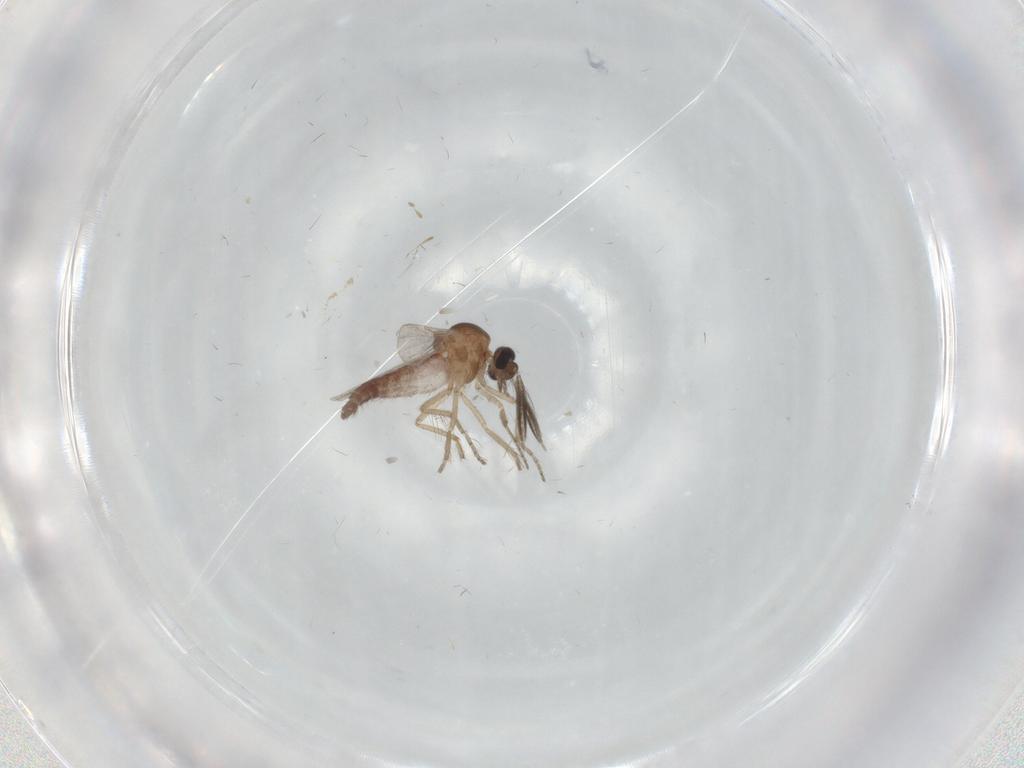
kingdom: Animalia
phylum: Arthropoda
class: Insecta
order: Diptera
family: Ceratopogonidae
